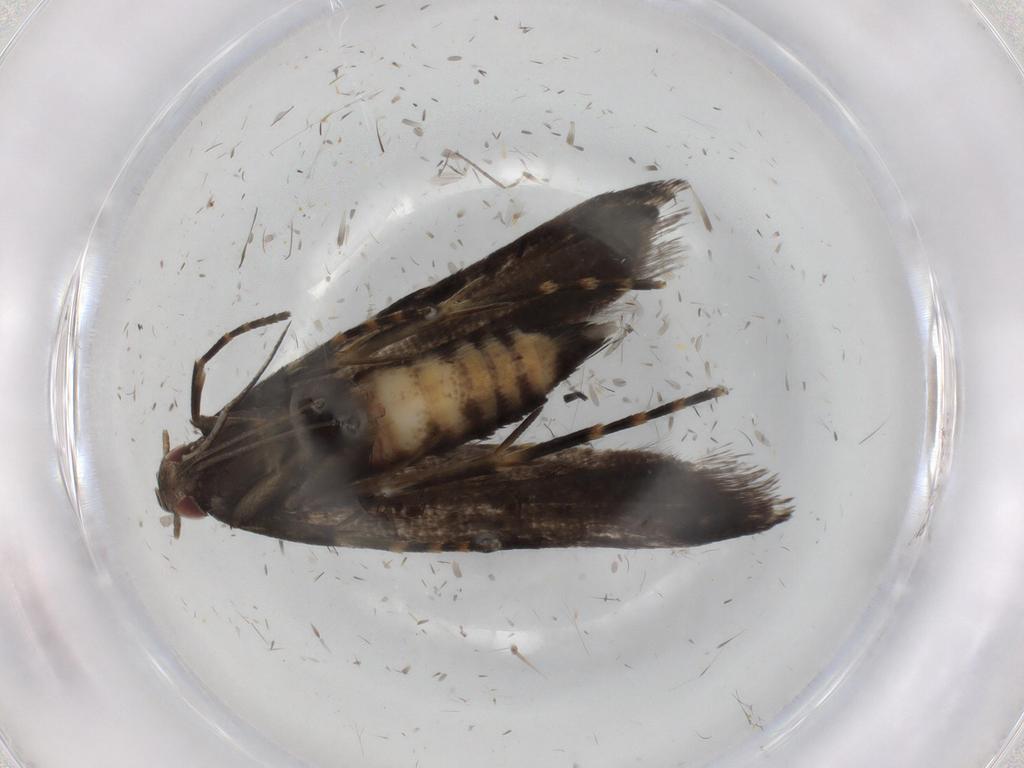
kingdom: Animalia
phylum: Arthropoda
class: Insecta
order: Lepidoptera
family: Gelechiidae
